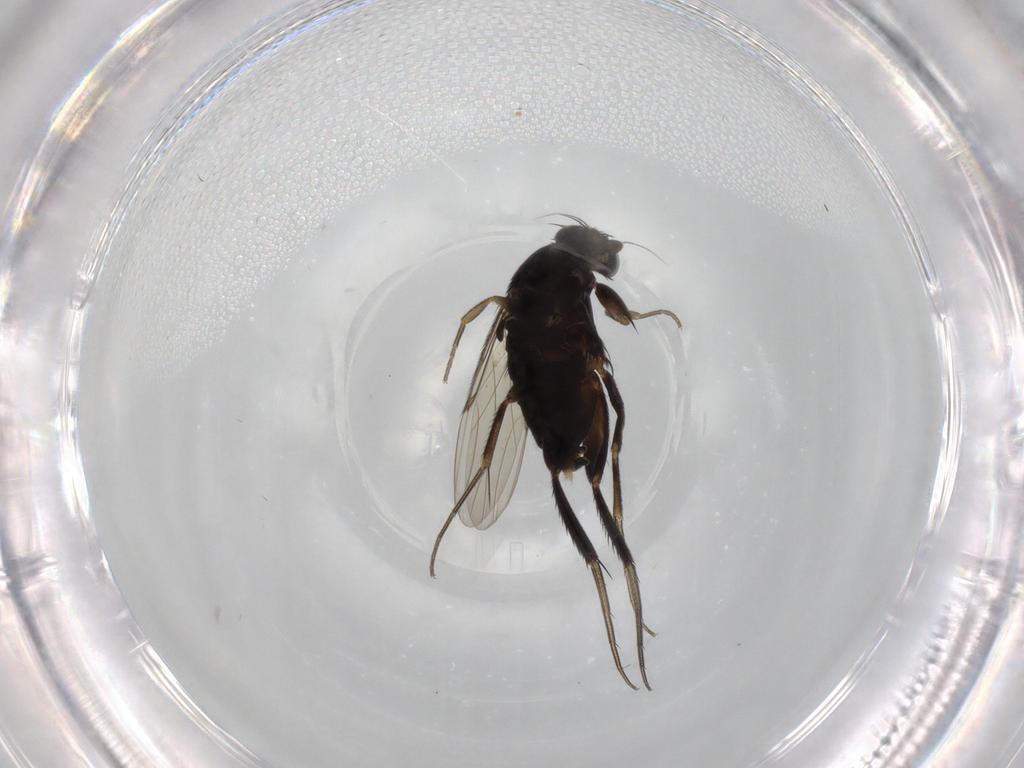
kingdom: Animalia
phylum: Arthropoda
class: Insecta
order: Diptera
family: Phoridae
